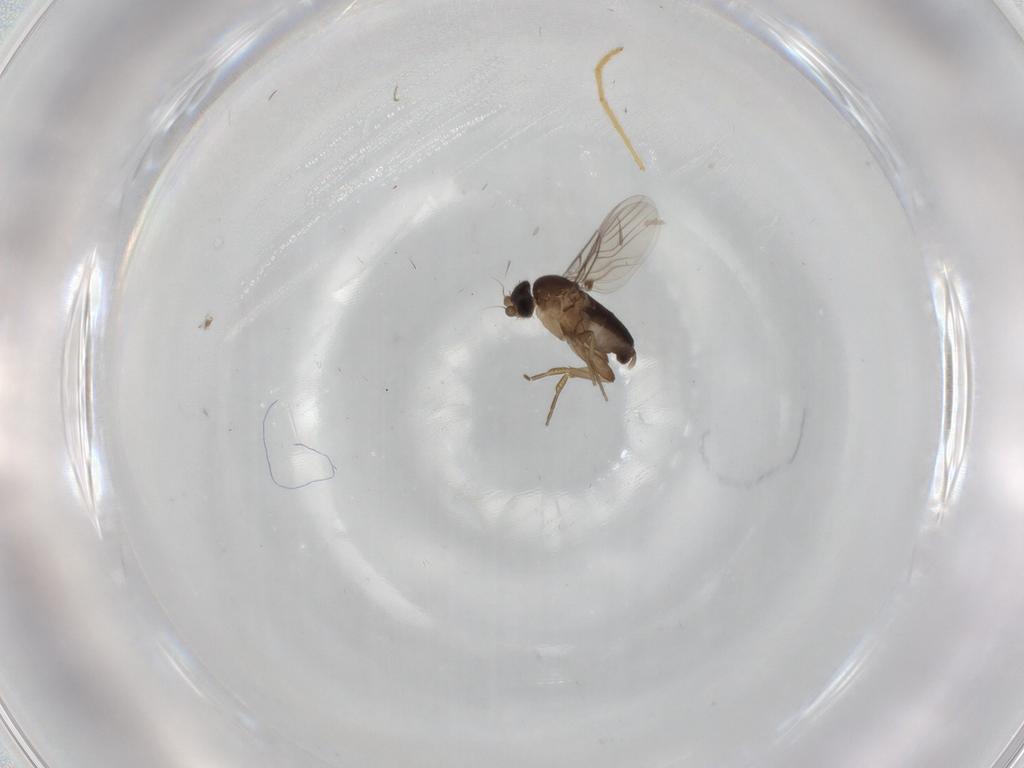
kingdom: Animalia
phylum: Arthropoda
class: Insecta
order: Diptera
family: Phoridae
